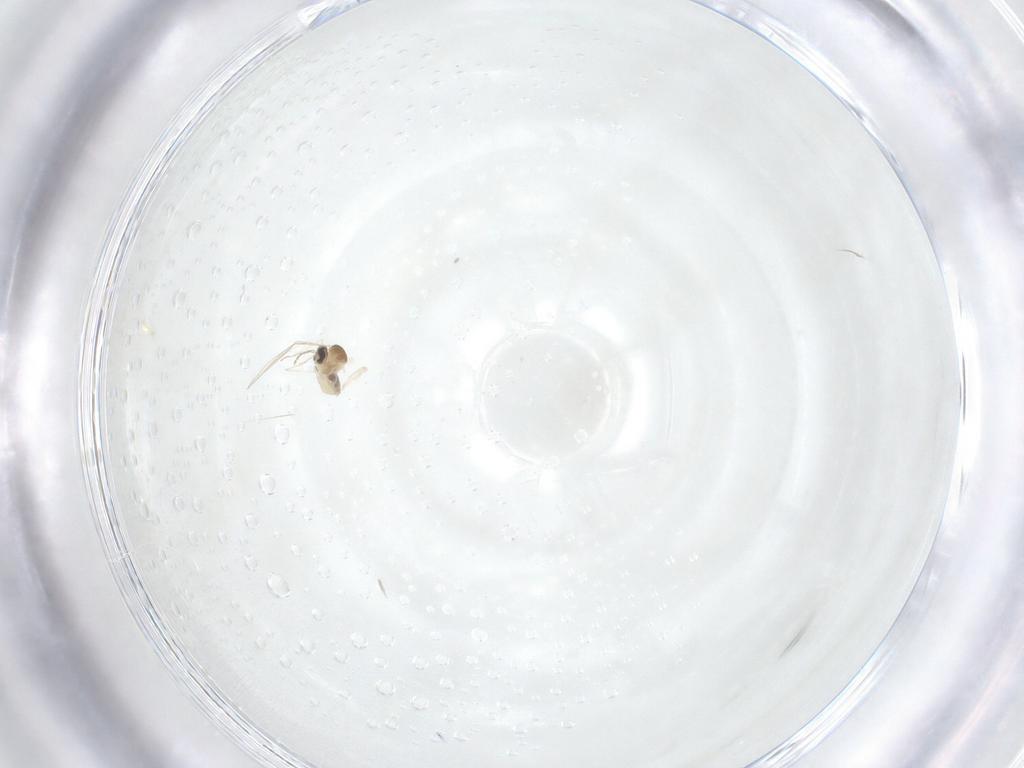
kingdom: Animalia
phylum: Arthropoda
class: Insecta
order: Diptera
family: Cecidomyiidae
